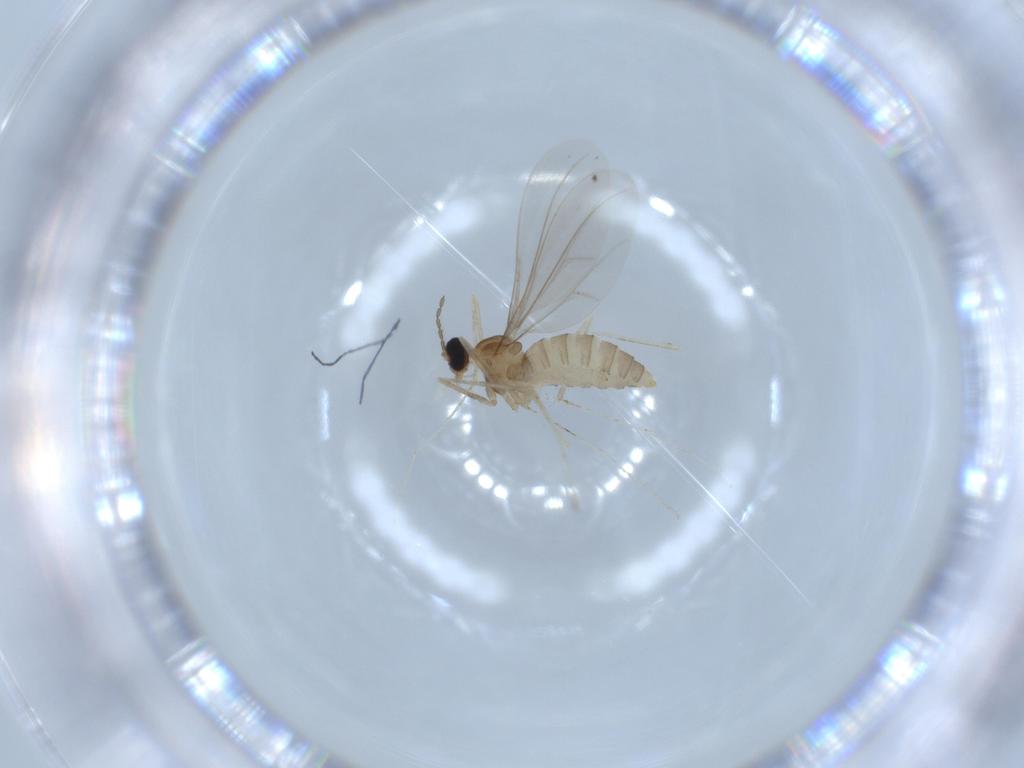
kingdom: Animalia
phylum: Arthropoda
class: Insecta
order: Diptera
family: Cecidomyiidae
